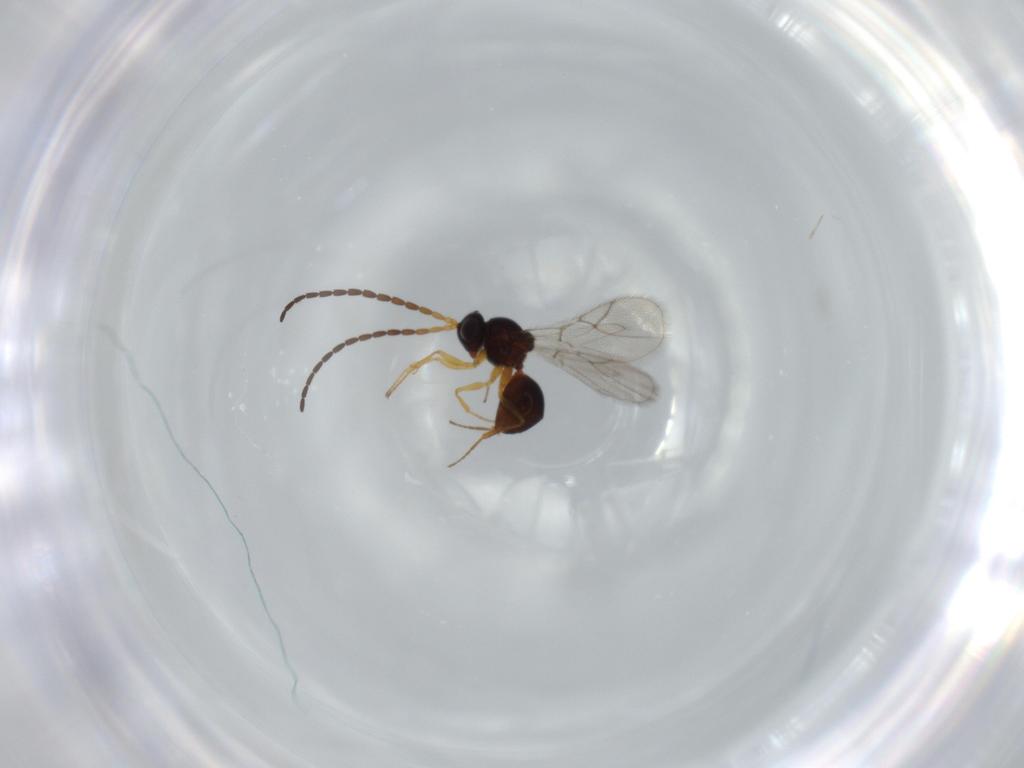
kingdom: Animalia
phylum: Arthropoda
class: Insecta
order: Hymenoptera
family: Figitidae
